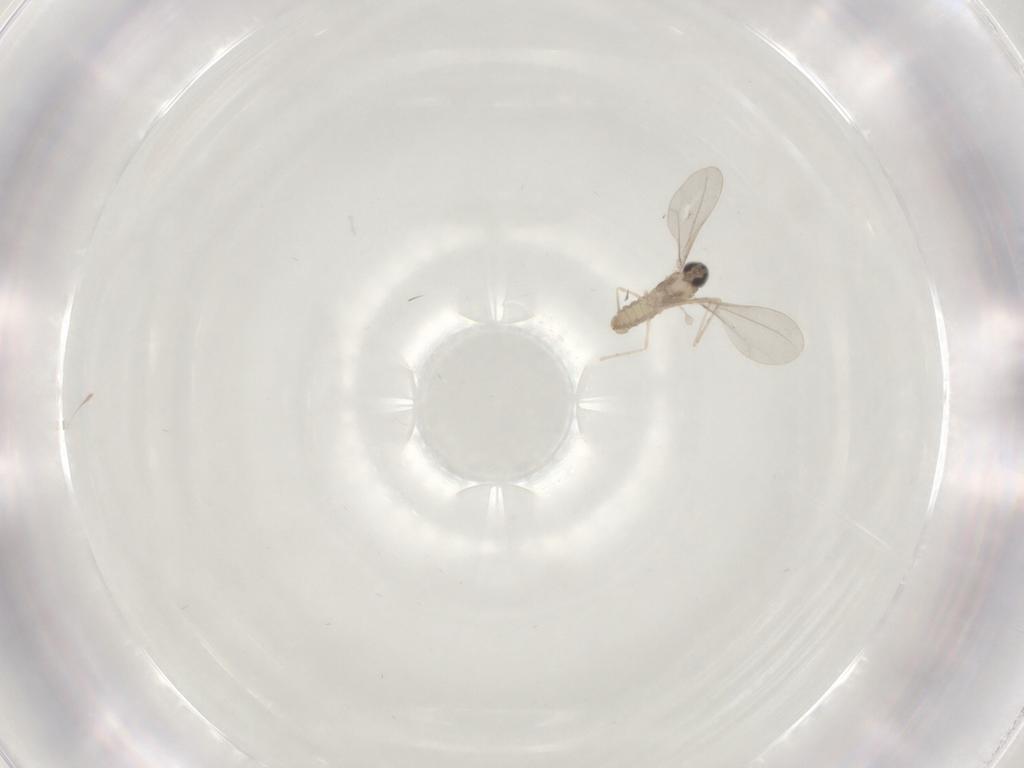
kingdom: Animalia
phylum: Arthropoda
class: Insecta
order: Diptera
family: Cecidomyiidae
